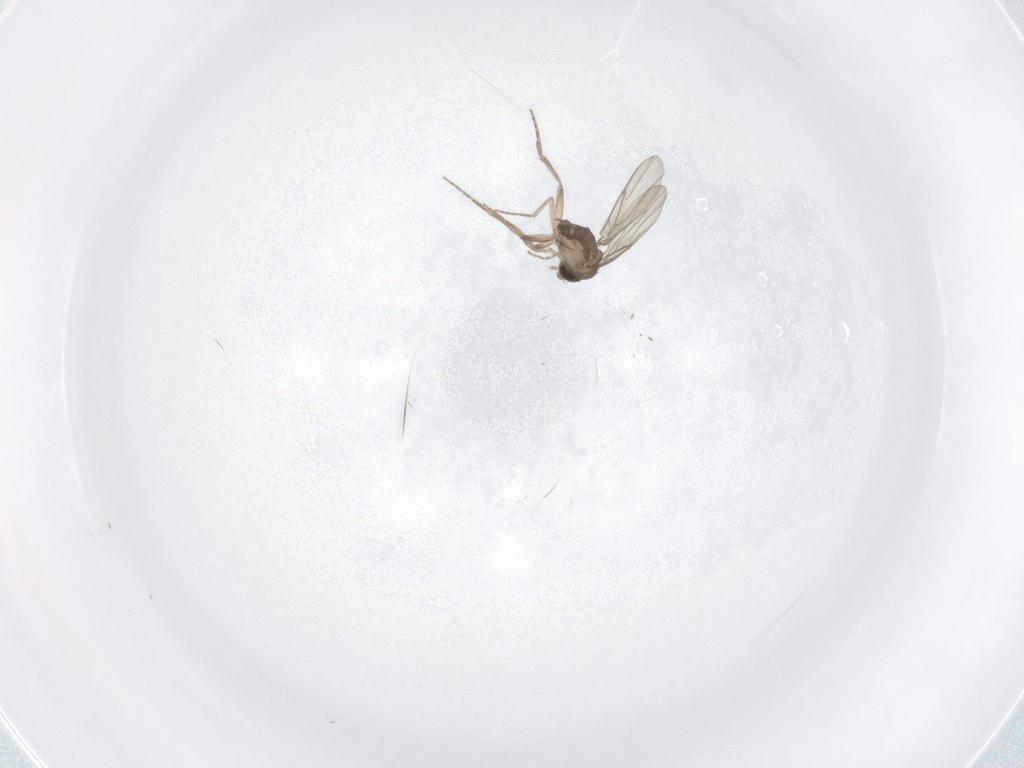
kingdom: Animalia
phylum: Arthropoda
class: Insecta
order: Diptera
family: Phoridae
